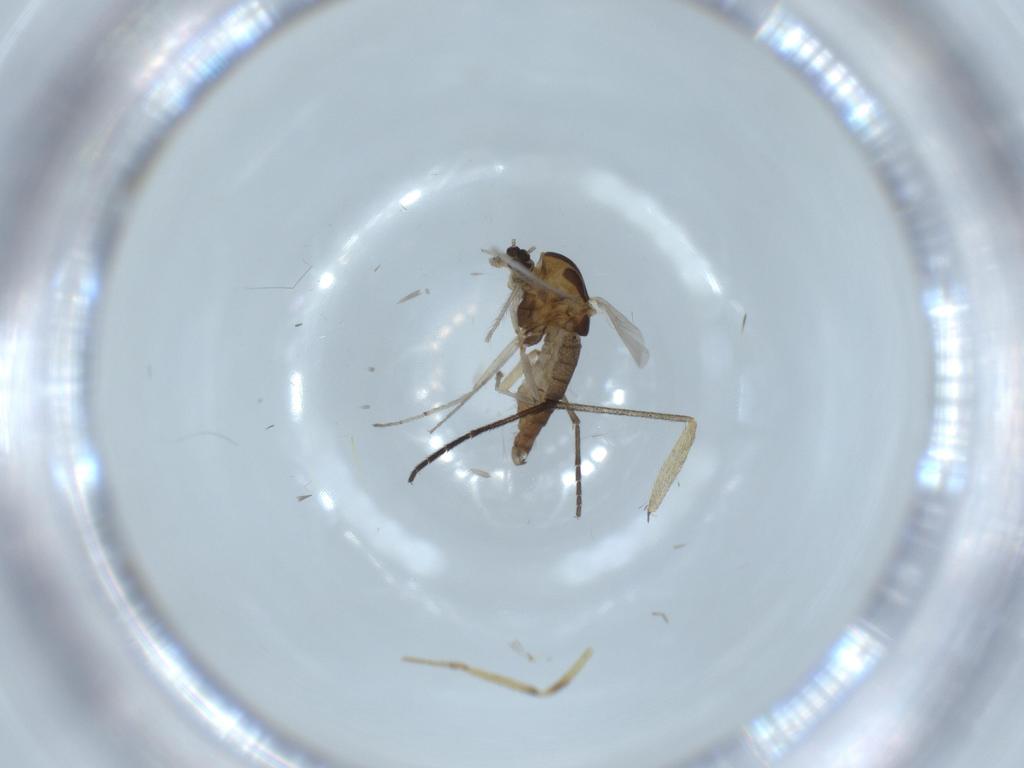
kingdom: Animalia
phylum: Arthropoda
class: Insecta
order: Diptera
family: Chironomidae
